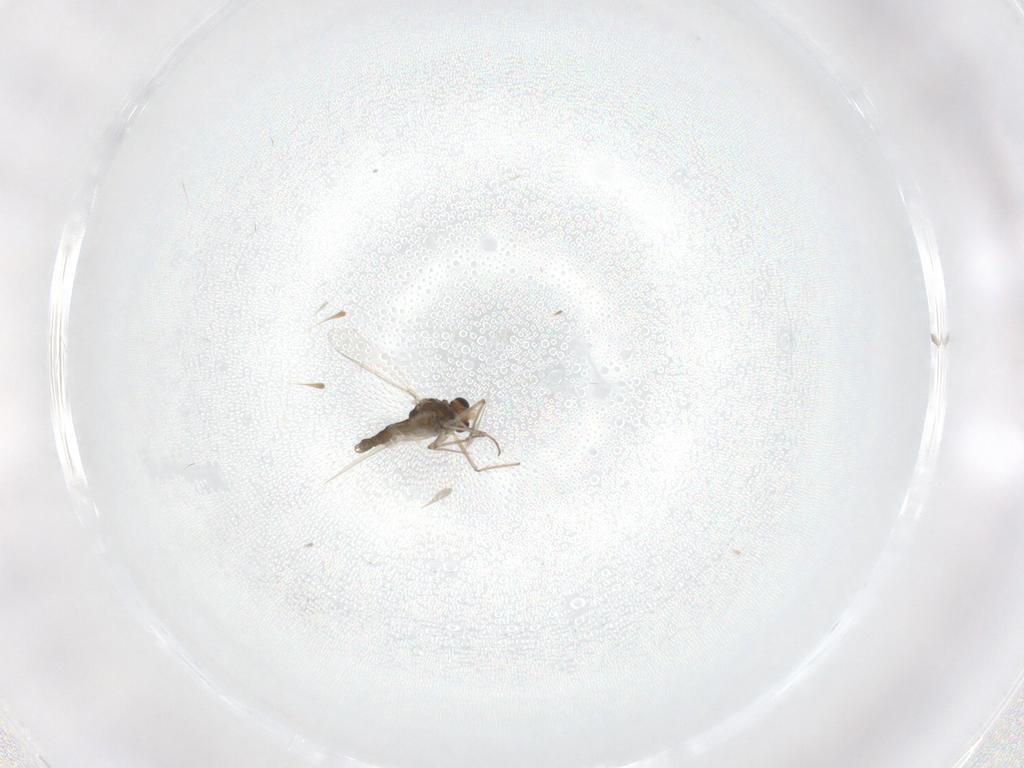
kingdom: Animalia
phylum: Arthropoda
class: Insecta
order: Diptera
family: Chironomidae
